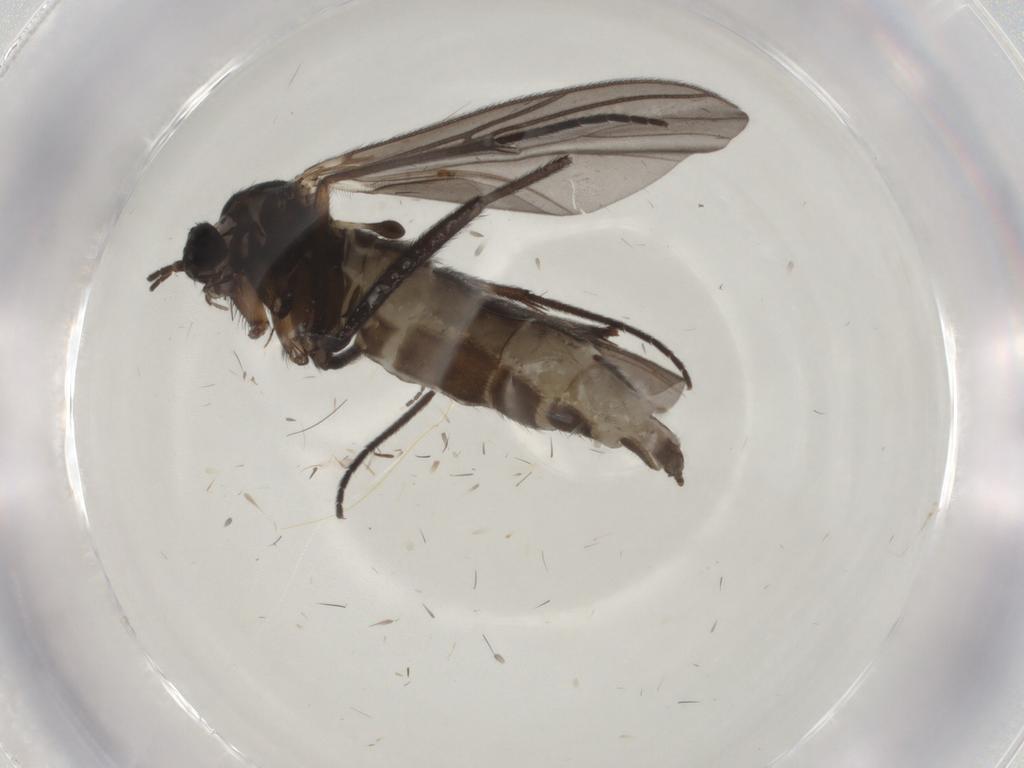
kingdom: Animalia
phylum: Arthropoda
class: Insecta
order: Diptera
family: Sciaridae
